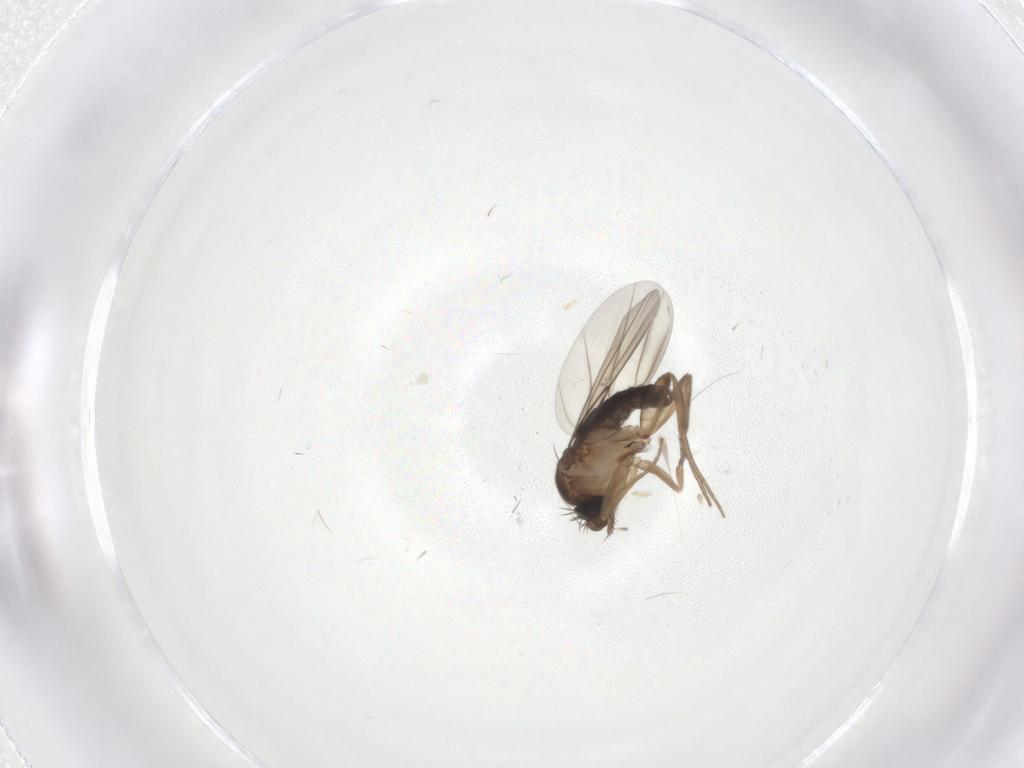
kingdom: Animalia
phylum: Arthropoda
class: Insecta
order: Diptera
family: Phoridae
